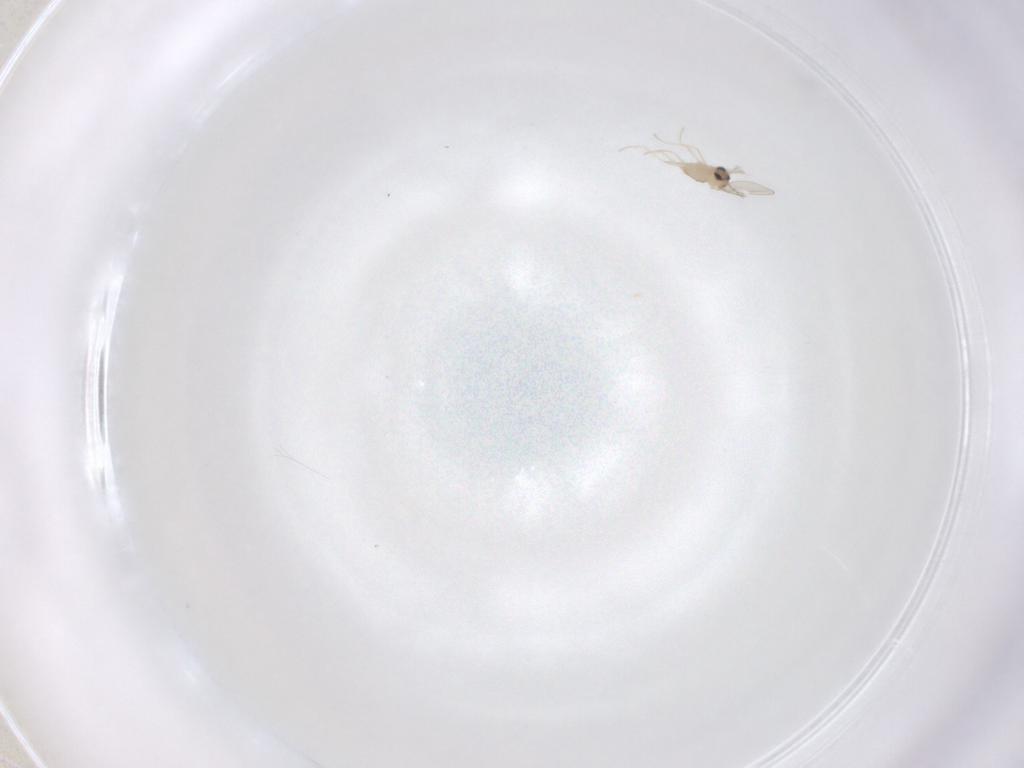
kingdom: Animalia
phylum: Arthropoda
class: Insecta
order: Diptera
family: Cecidomyiidae
